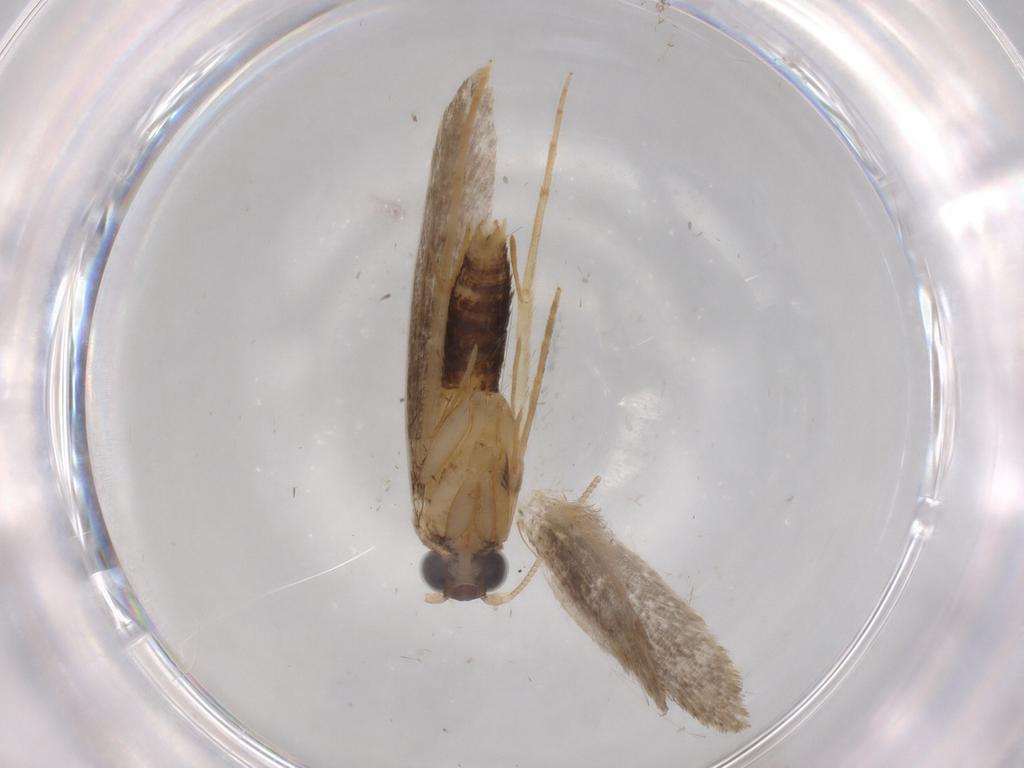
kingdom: Animalia
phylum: Arthropoda
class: Insecta
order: Lepidoptera
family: Tineidae
